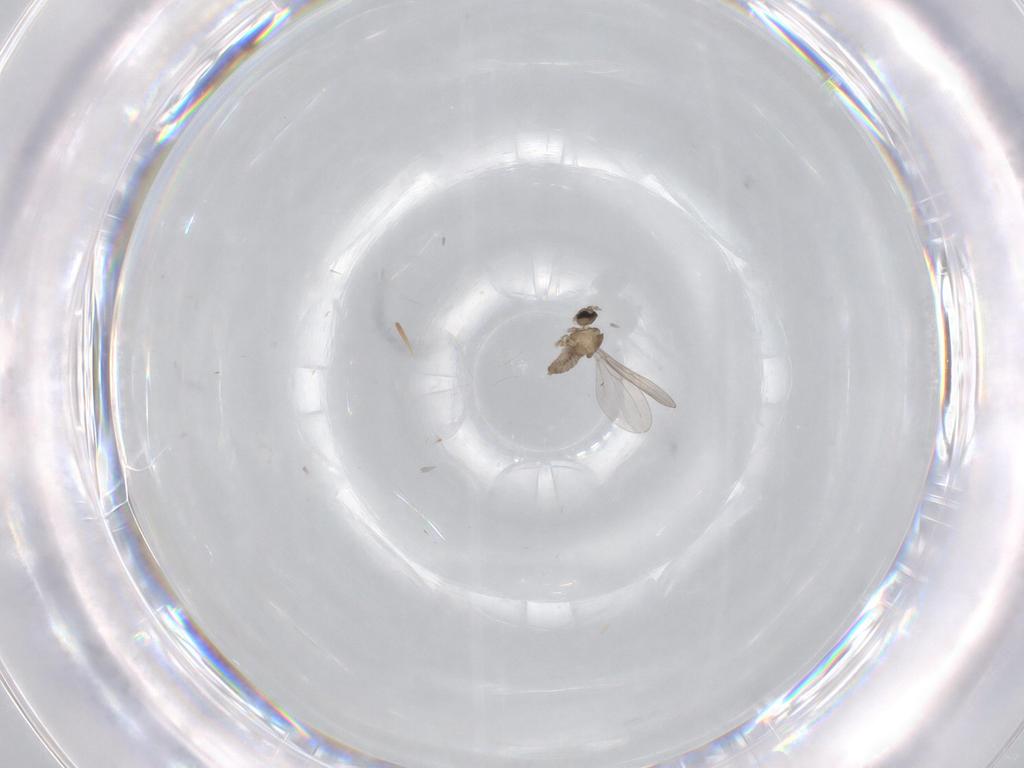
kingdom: Animalia
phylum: Arthropoda
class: Insecta
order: Diptera
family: Cecidomyiidae
